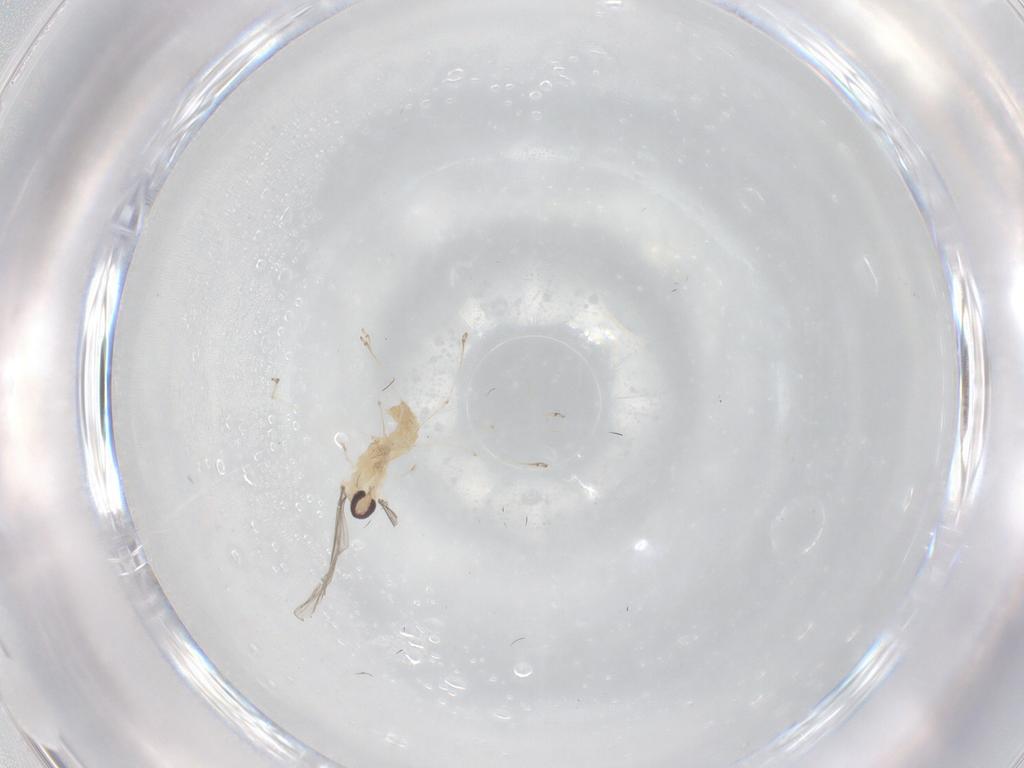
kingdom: Animalia
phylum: Arthropoda
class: Insecta
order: Diptera
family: Cecidomyiidae
